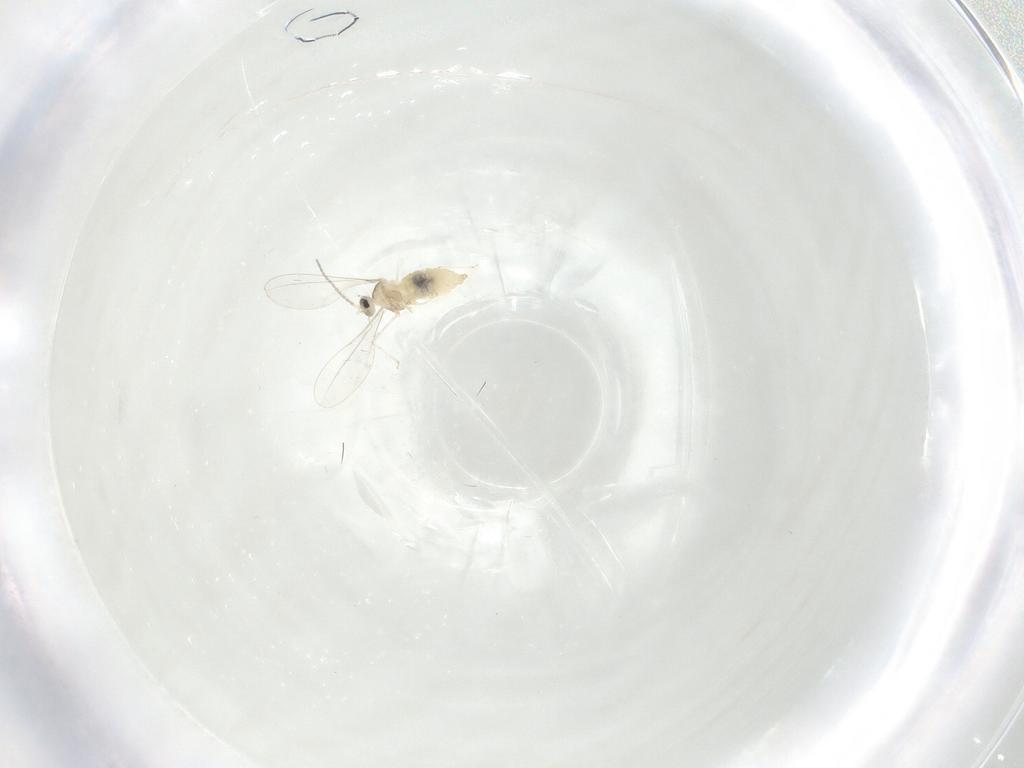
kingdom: Animalia
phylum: Arthropoda
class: Insecta
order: Diptera
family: Cecidomyiidae
